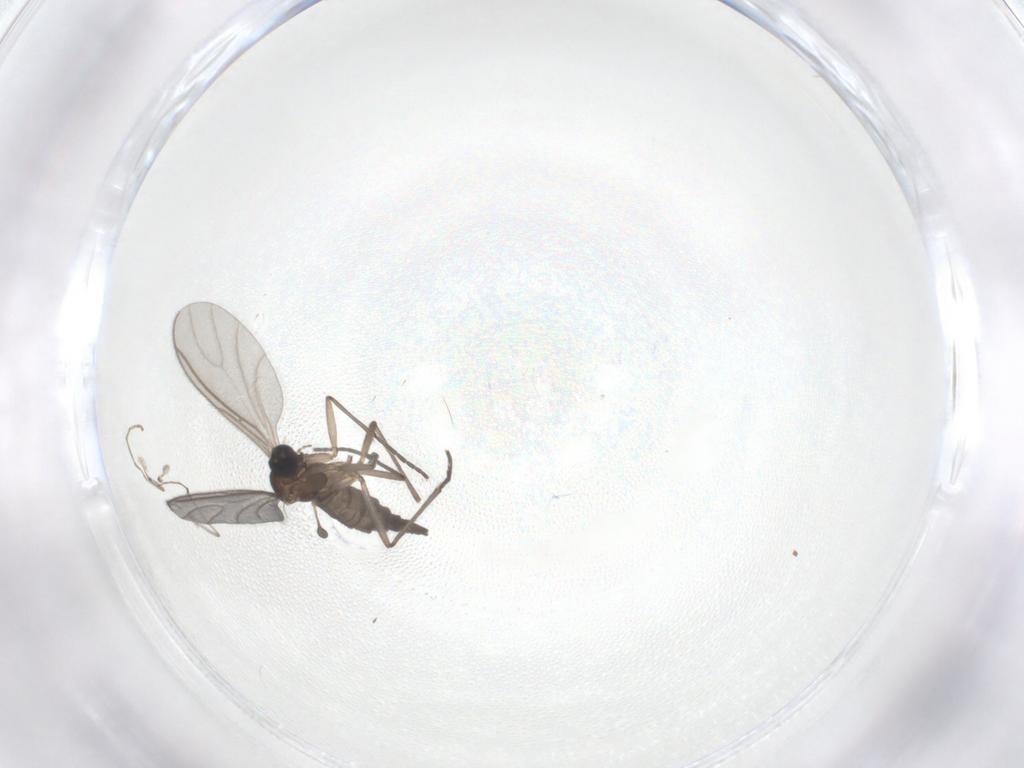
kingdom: Animalia
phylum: Arthropoda
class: Insecta
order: Diptera
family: Sciaridae
